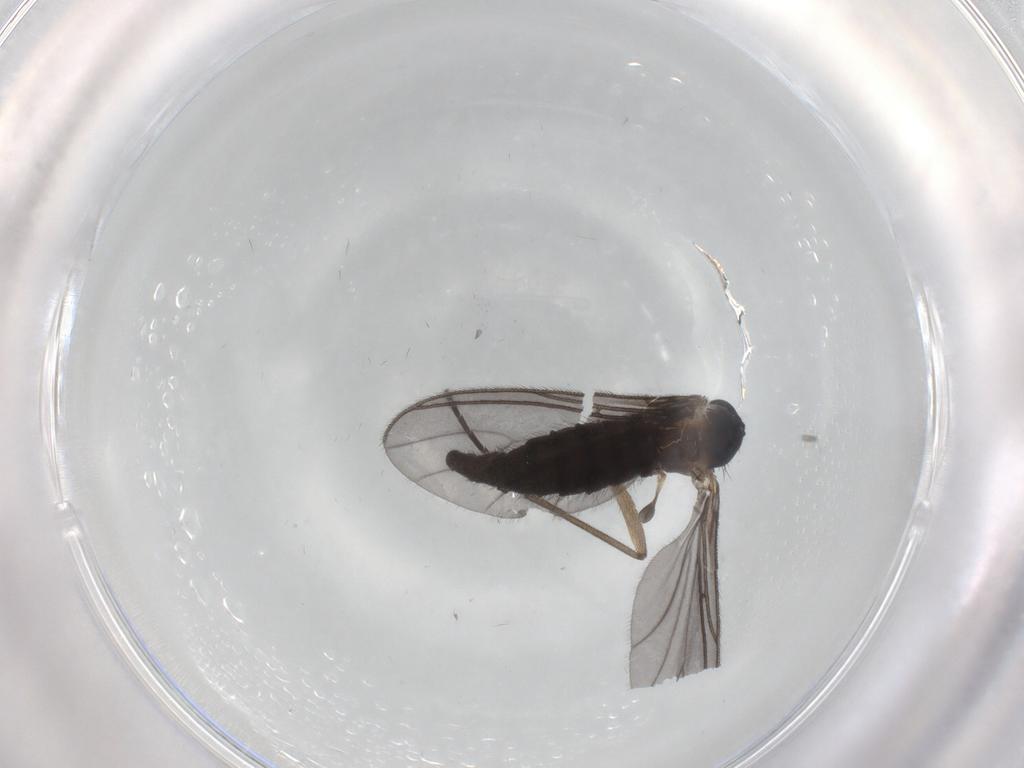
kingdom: Animalia
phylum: Arthropoda
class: Insecta
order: Diptera
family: Sciaridae
